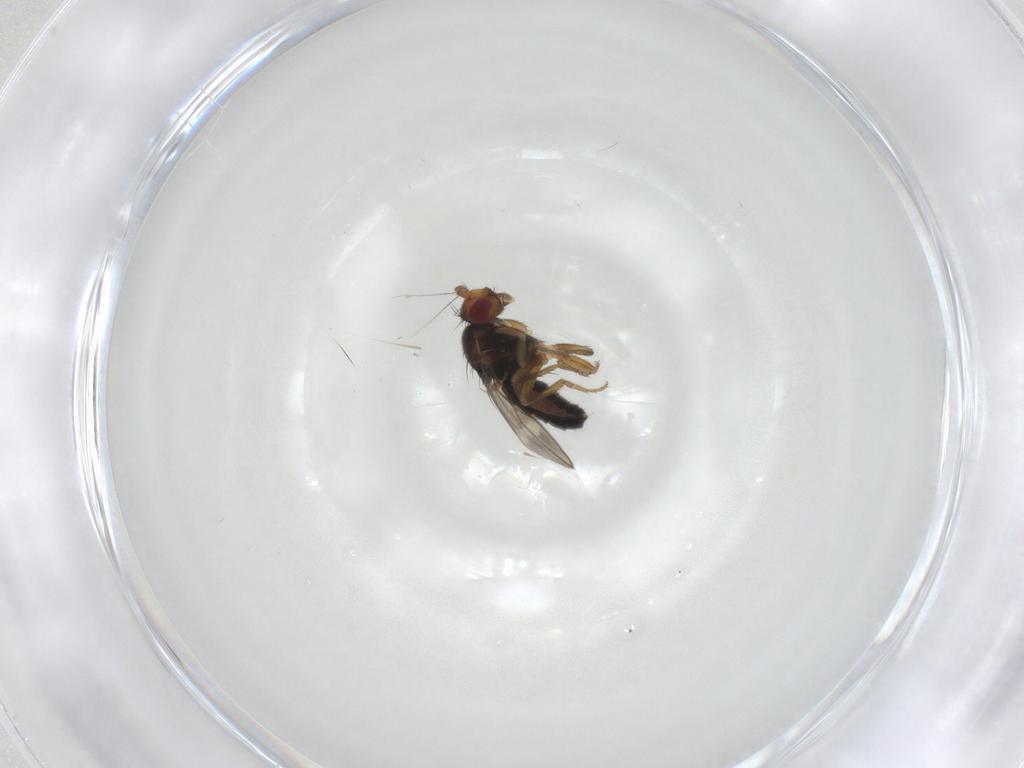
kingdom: Animalia
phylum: Arthropoda
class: Insecta
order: Diptera
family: Sphaeroceridae
